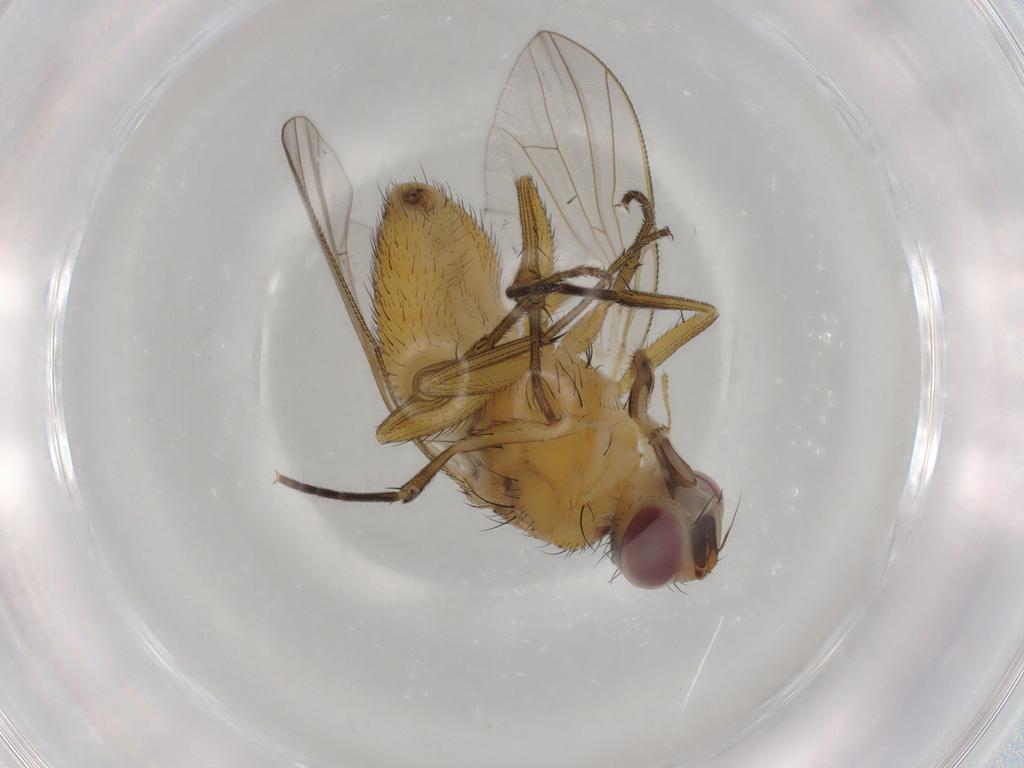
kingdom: Animalia
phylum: Arthropoda
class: Insecta
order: Diptera
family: Muscidae
